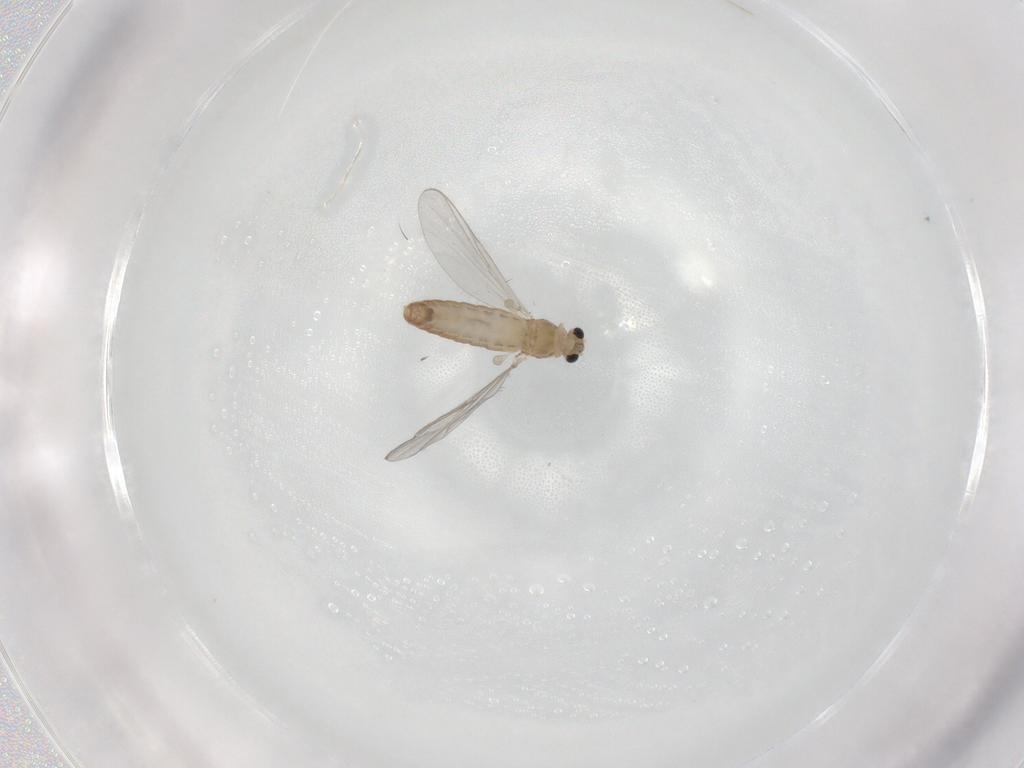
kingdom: Animalia
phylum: Arthropoda
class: Insecta
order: Diptera
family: Chironomidae
